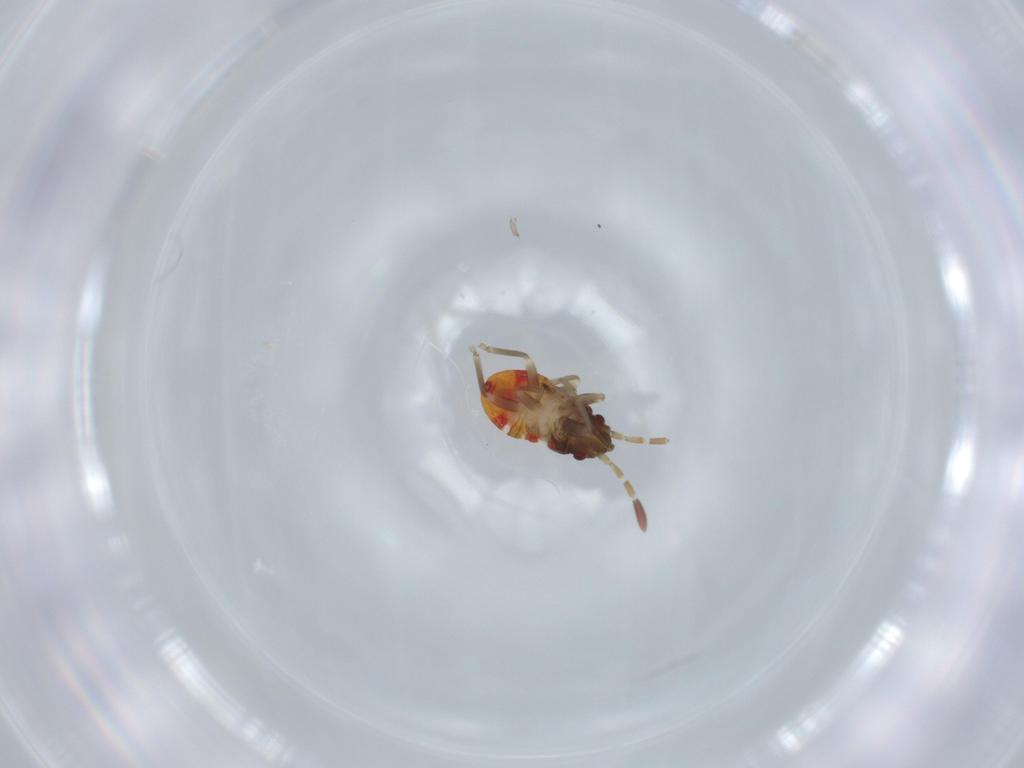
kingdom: Animalia
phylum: Arthropoda
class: Insecta
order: Hemiptera
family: Rhyparochromidae
